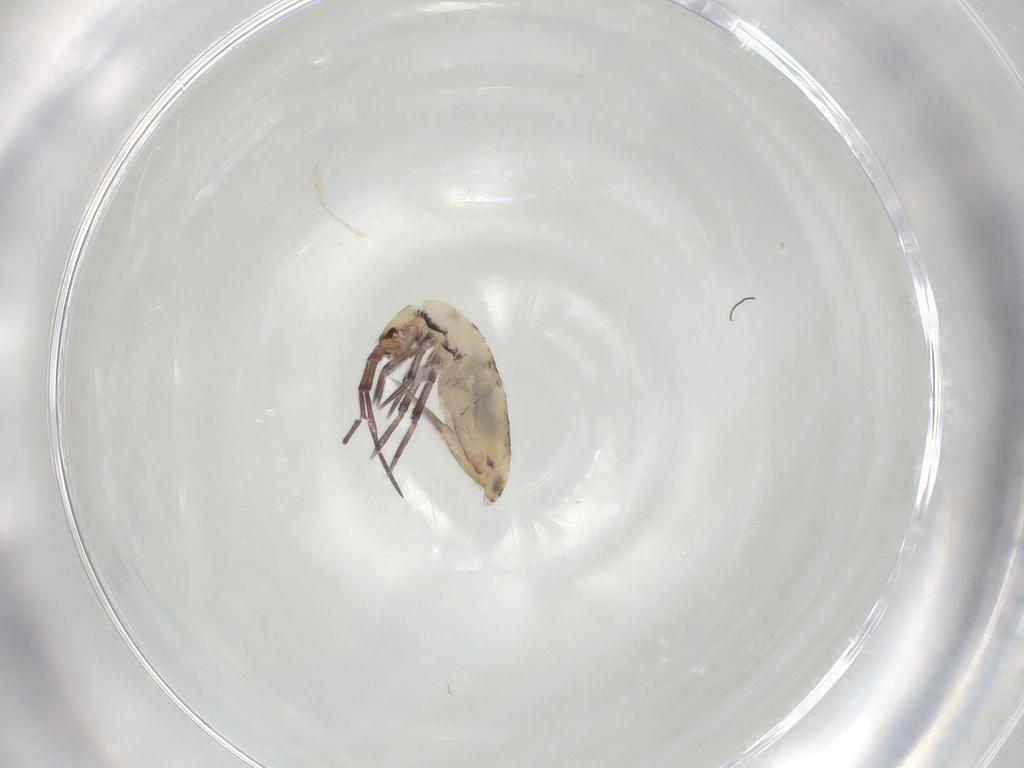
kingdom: Animalia
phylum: Arthropoda
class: Collembola
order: Entomobryomorpha
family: Entomobryidae
